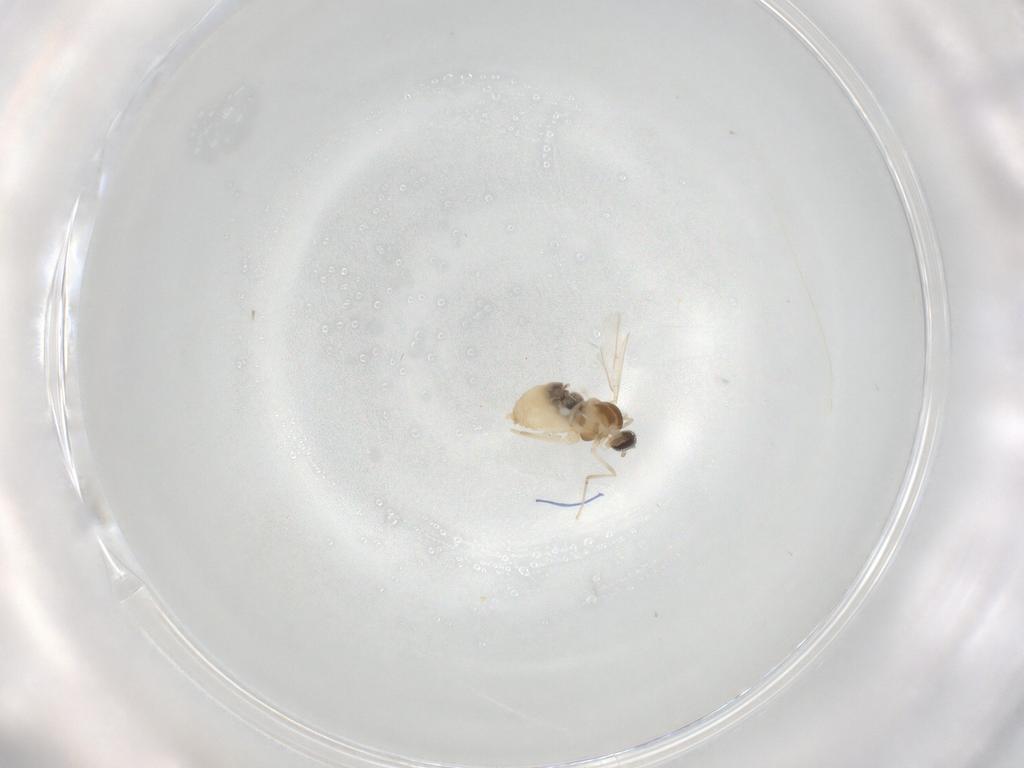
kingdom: Animalia
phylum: Arthropoda
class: Insecta
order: Diptera
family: Cecidomyiidae
